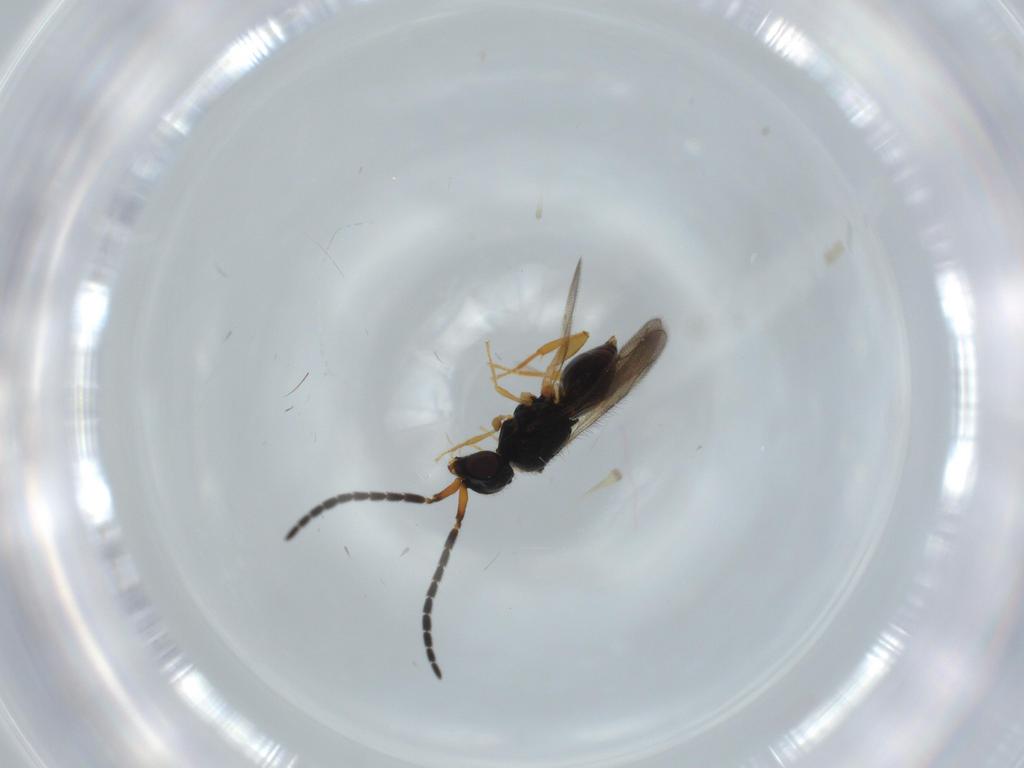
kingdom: Animalia
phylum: Arthropoda
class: Insecta
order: Hymenoptera
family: Ceraphronidae
